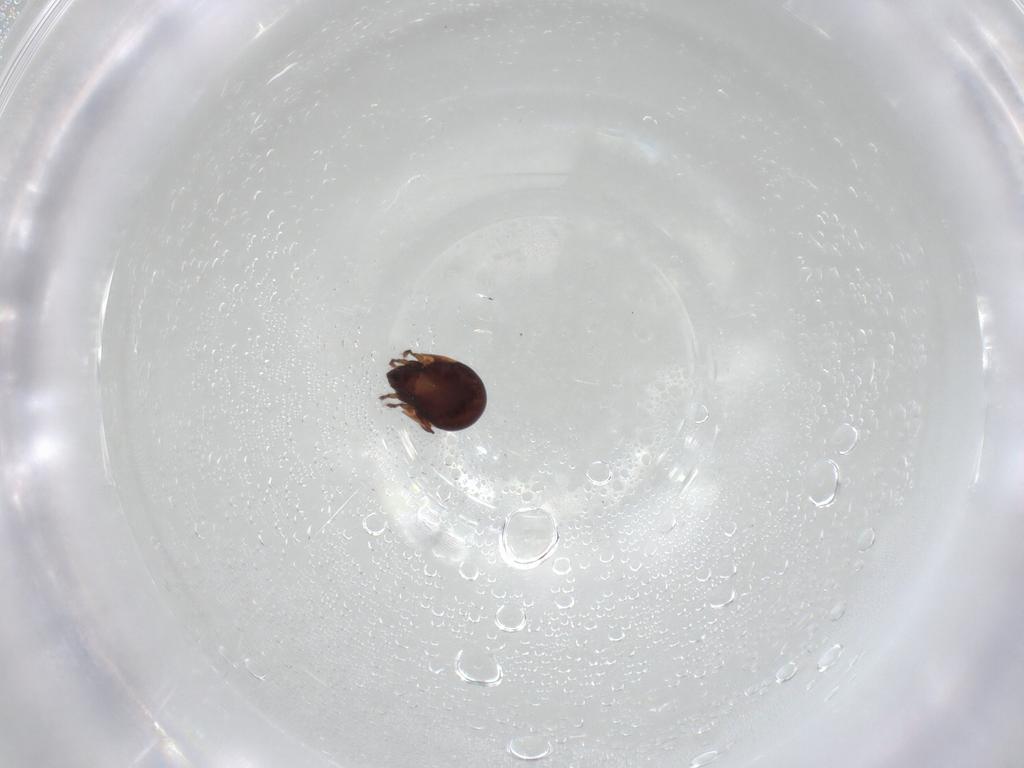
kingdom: Animalia
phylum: Arthropoda
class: Arachnida
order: Sarcoptiformes
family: Humerobatidae
